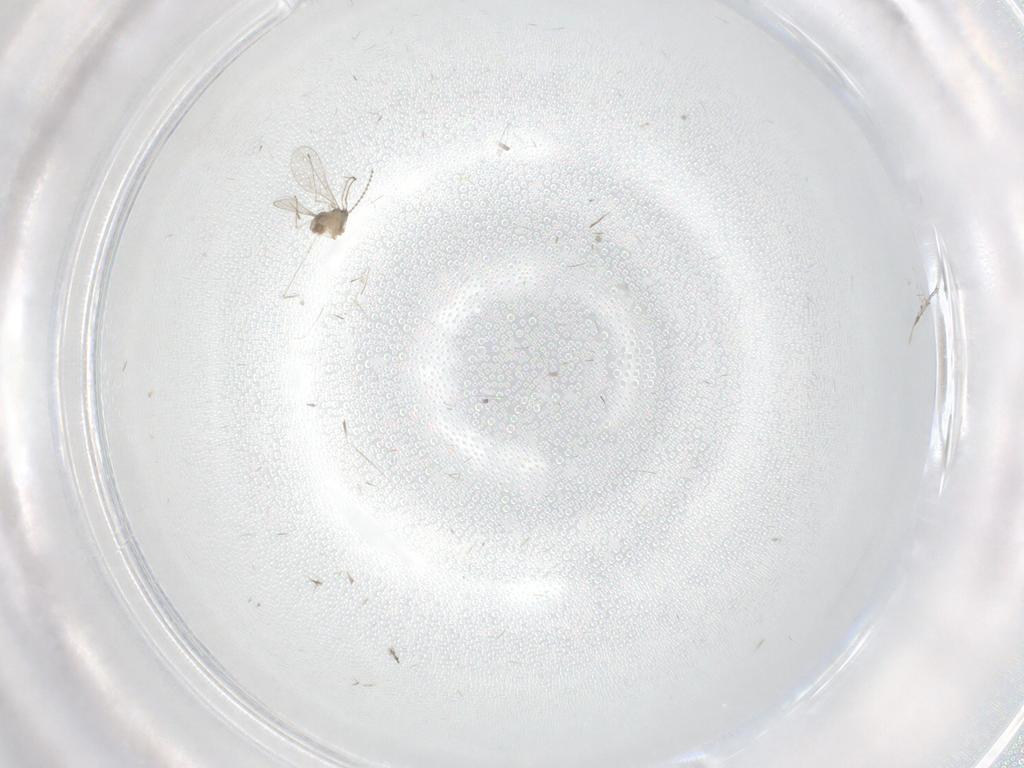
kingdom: Animalia
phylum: Arthropoda
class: Insecta
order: Diptera
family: Cecidomyiidae
